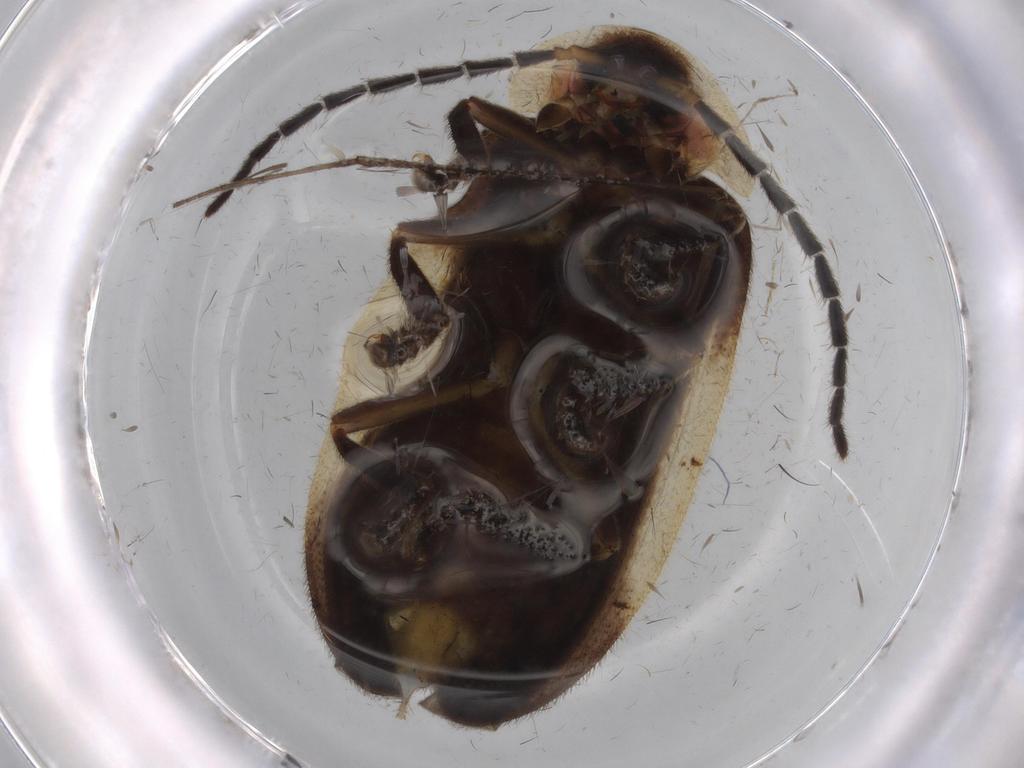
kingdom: Animalia
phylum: Arthropoda
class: Insecta
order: Coleoptera
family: Lampyridae
